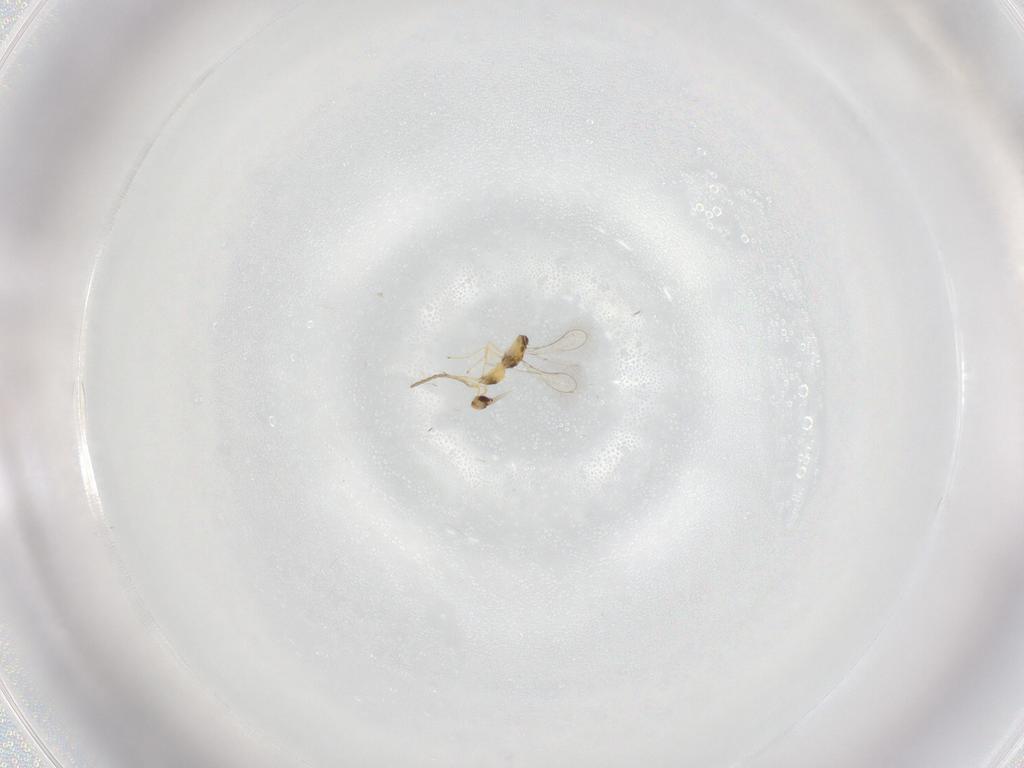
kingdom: Animalia
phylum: Arthropoda
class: Insecta
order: Hymenoptera
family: Mymaridae
